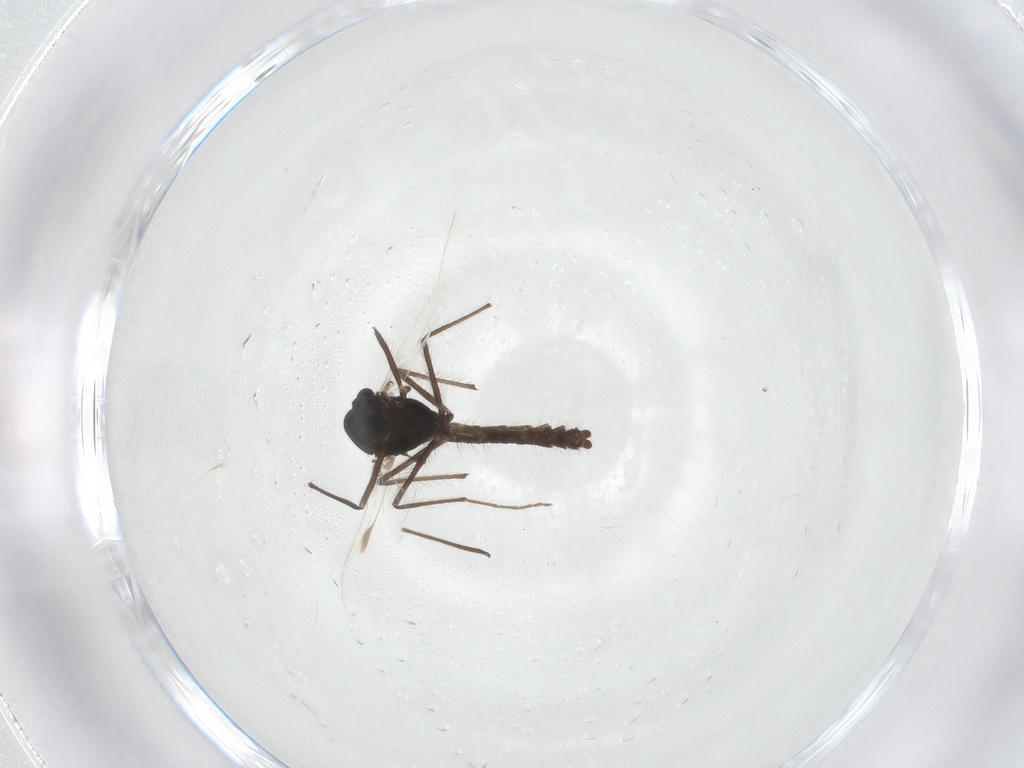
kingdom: Animalia
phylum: Arthropoda
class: Insecta
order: Diptera
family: Chironomidae
